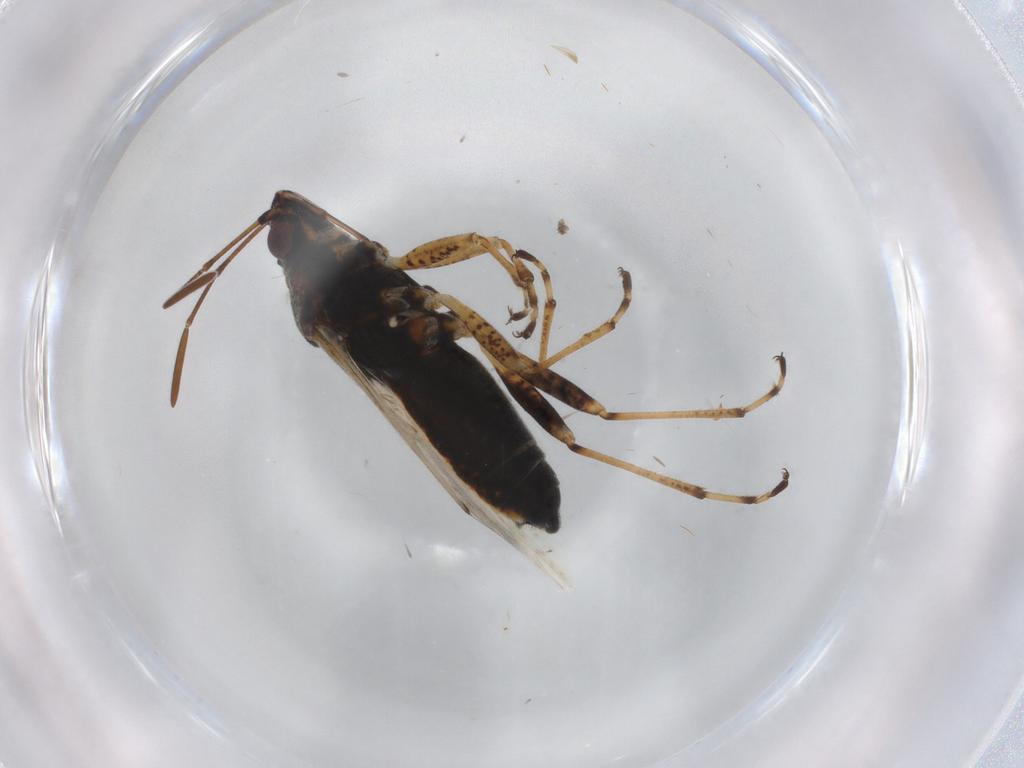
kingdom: Animalia
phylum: Arthropoda
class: Insecta
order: Hemiptera
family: Lygaeidae
